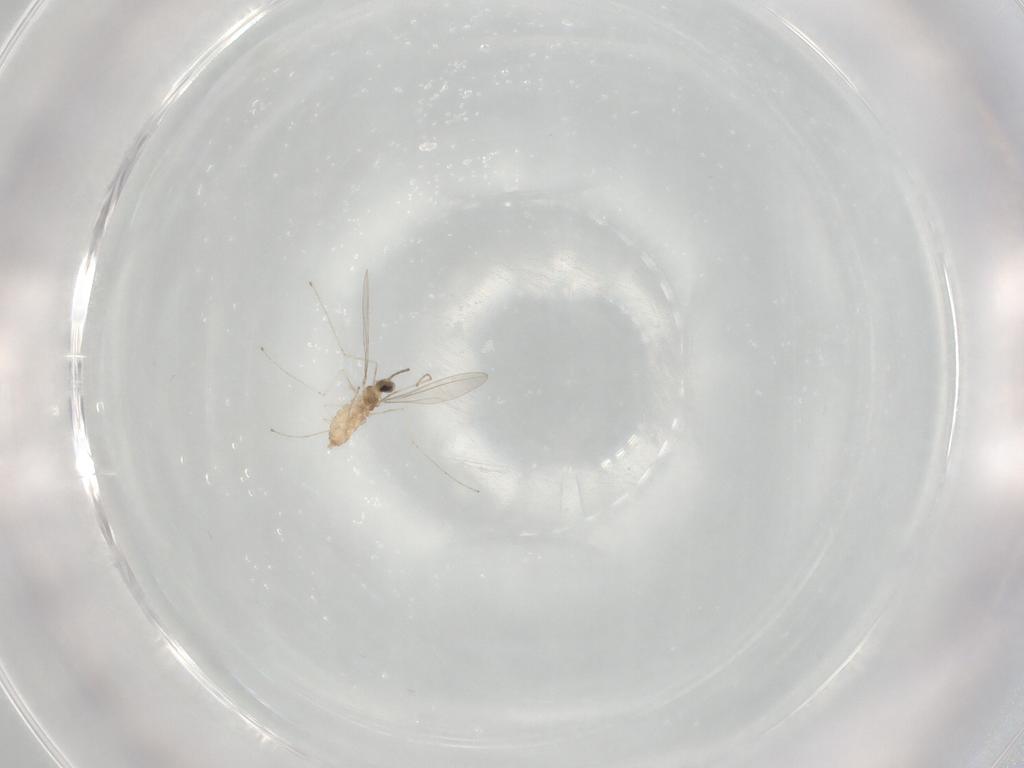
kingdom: Animalia
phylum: Arthropoda
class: Insecta
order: Diptera
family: Cecidomyiidae
